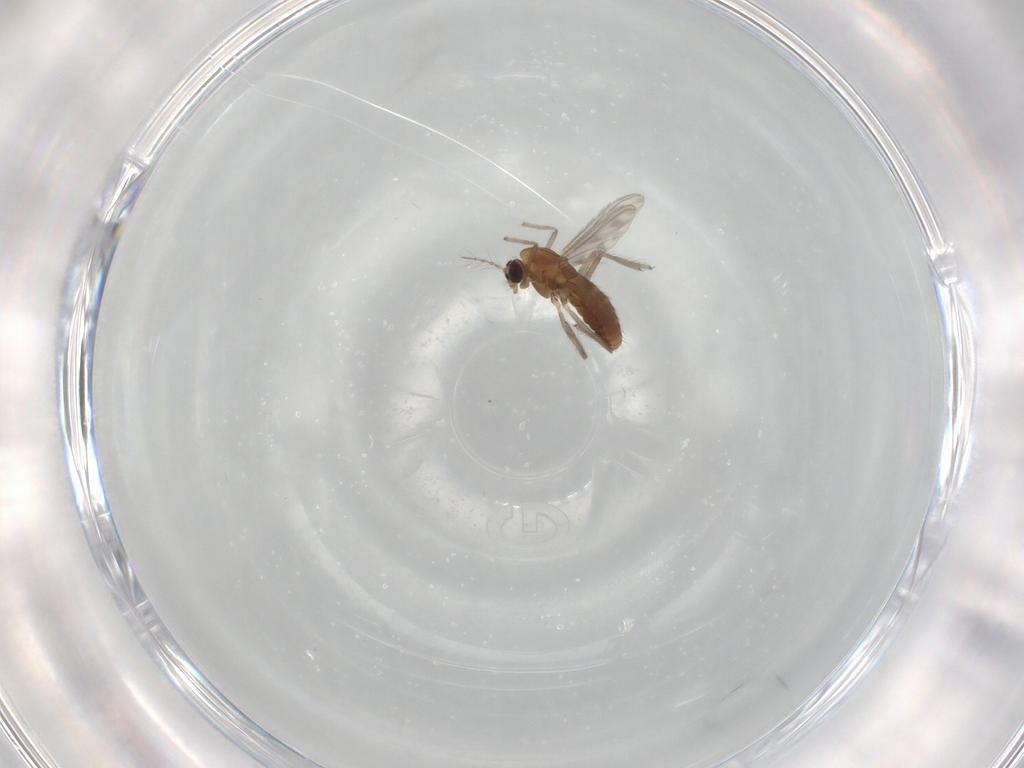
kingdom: Animalia
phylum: Arthropoda
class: Insecta
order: Diptera
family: Chironomidae
